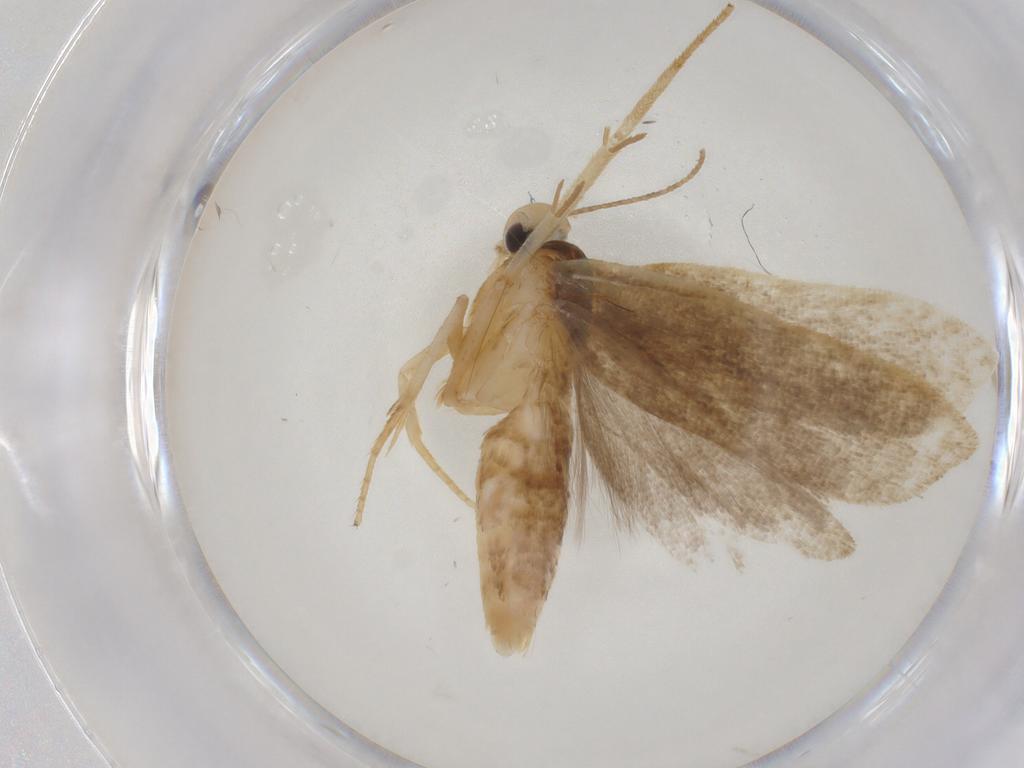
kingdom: Animalia
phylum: Arthropoda
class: Insecta
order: Lepidoptera
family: Gelechiidae
